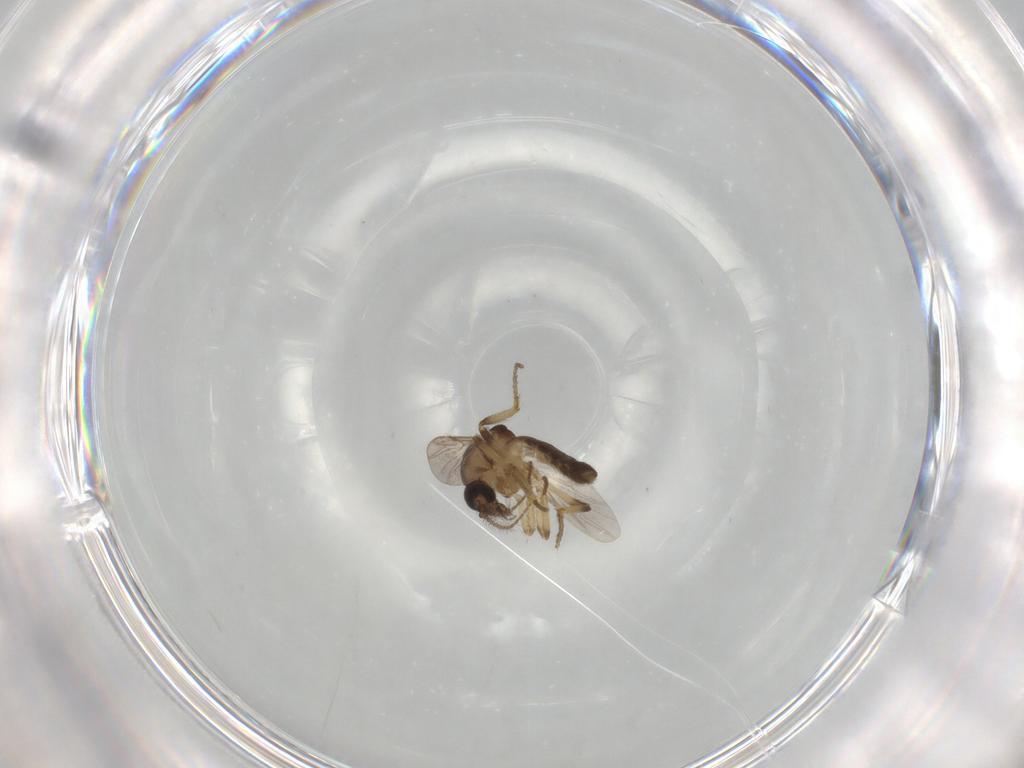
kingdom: Animalia
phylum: Arthropoda
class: Insecta
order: Diptera
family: Ceratopogonidae
